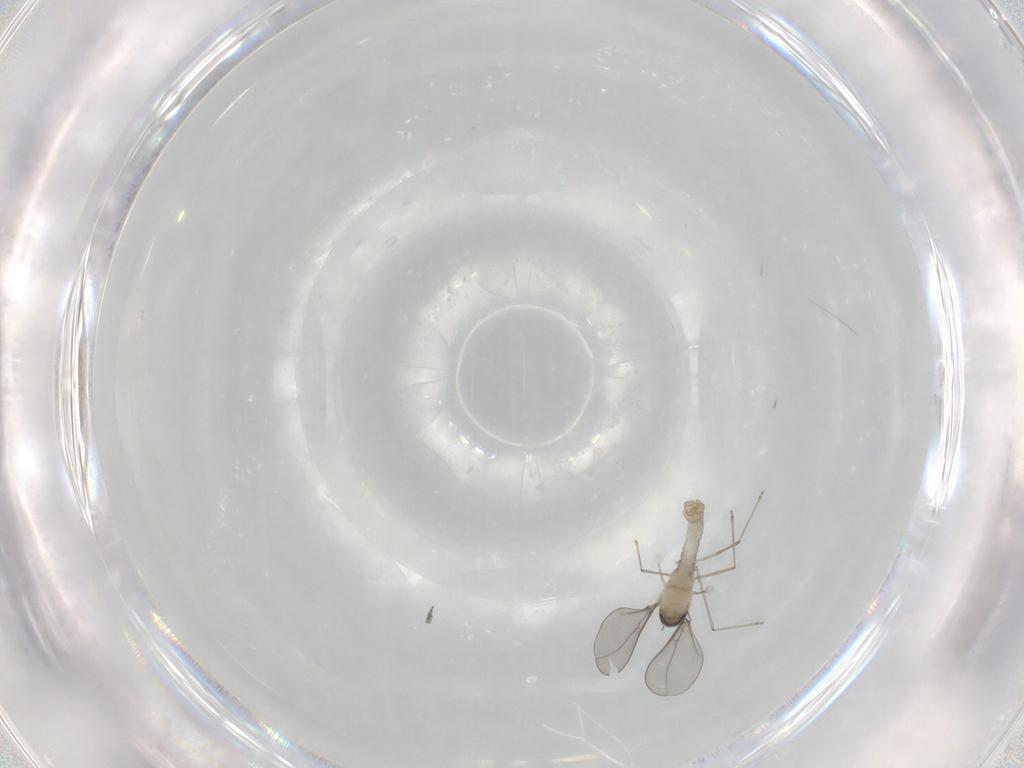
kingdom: Animalia
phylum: Arthropoda
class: Insecta
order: Diptera
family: Cecidomyiidae
